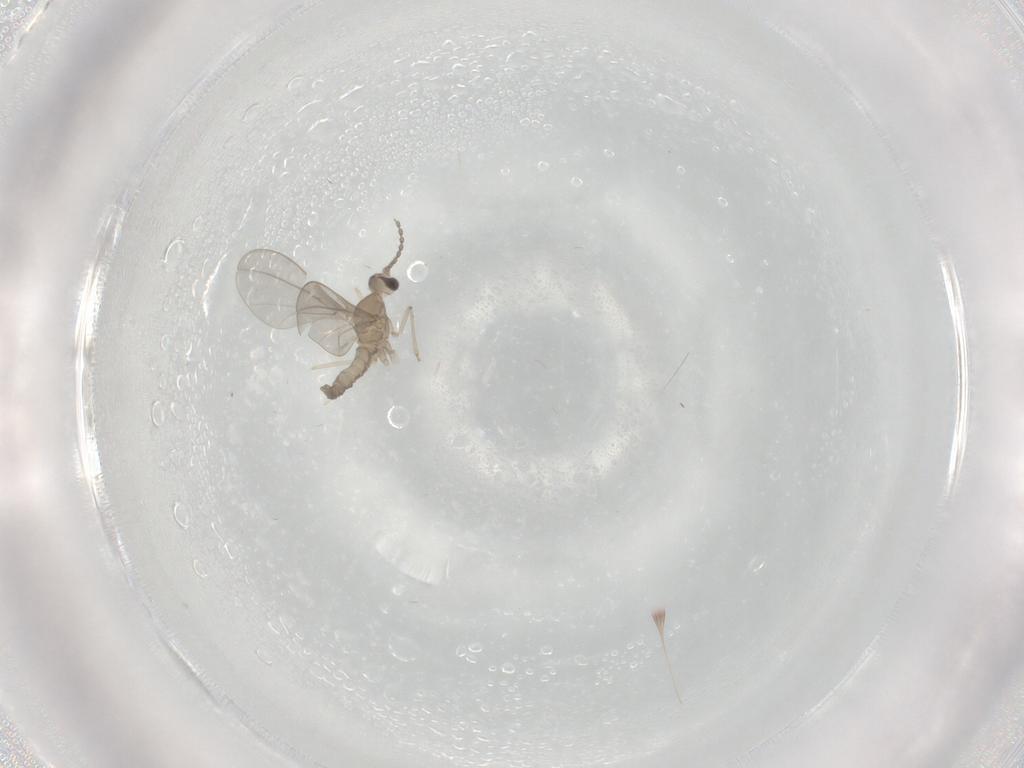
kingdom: Animalia
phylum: Arthropoda
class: Insecta
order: Diptera
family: Cecidomyiidae
